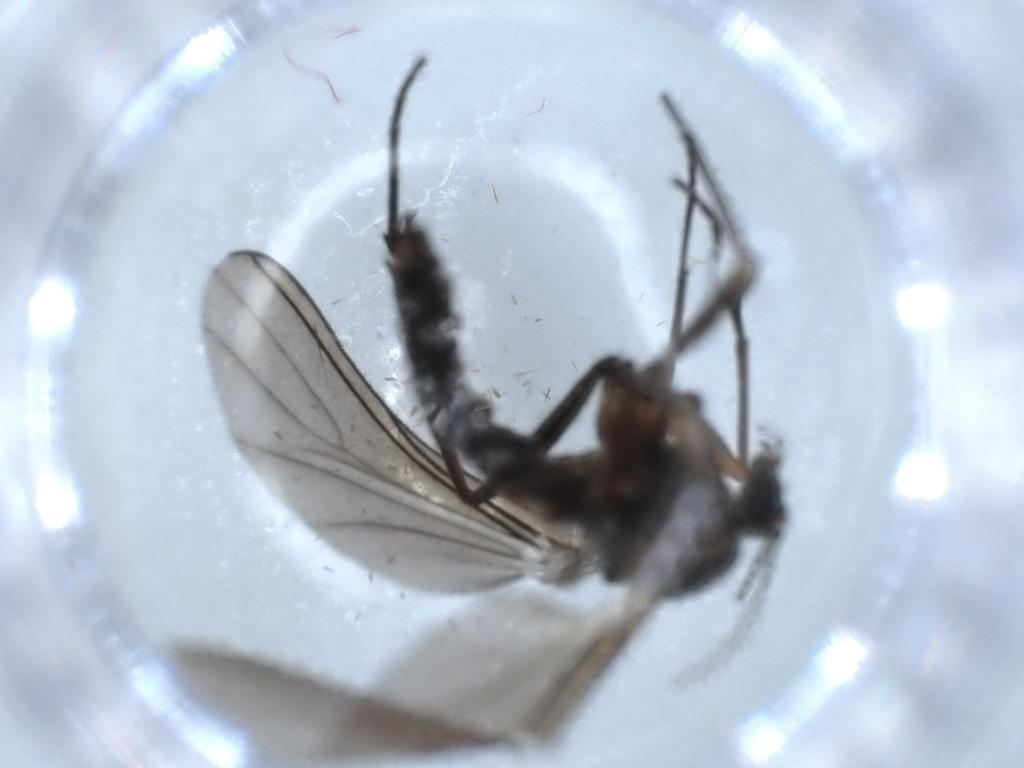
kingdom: Animalia
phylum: Arthropoda
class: Insecta
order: Diptera
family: Sciaridae
